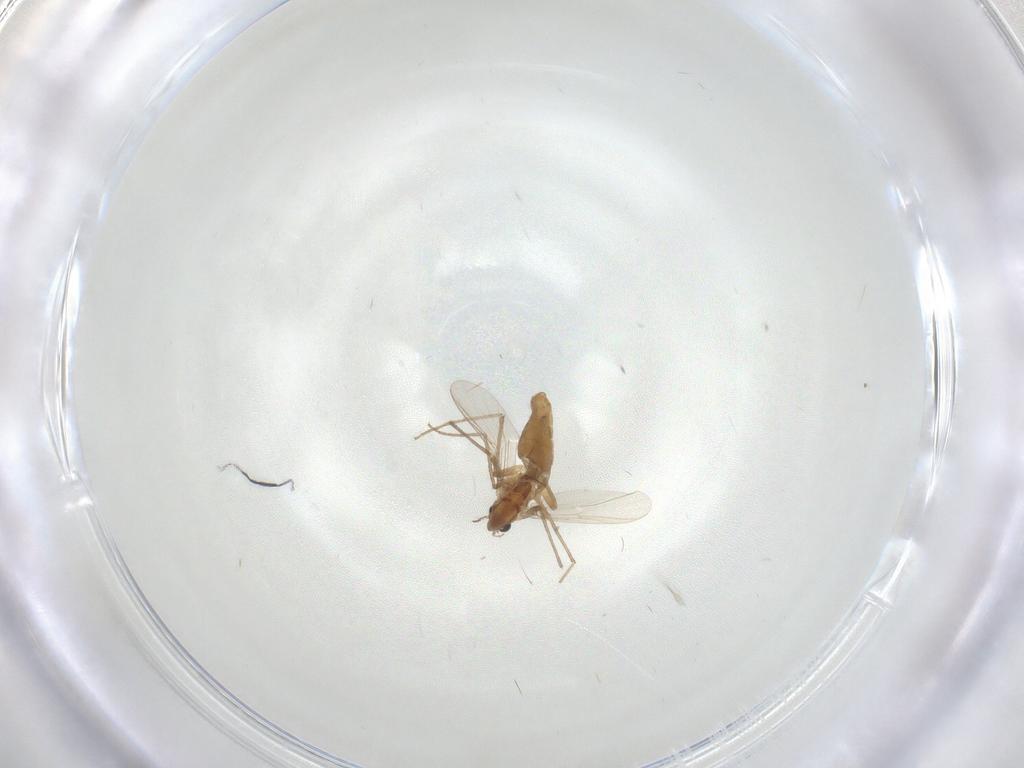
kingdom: Animalia
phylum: Arthropoda
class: Insecta
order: Diptera
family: Chironomidae
